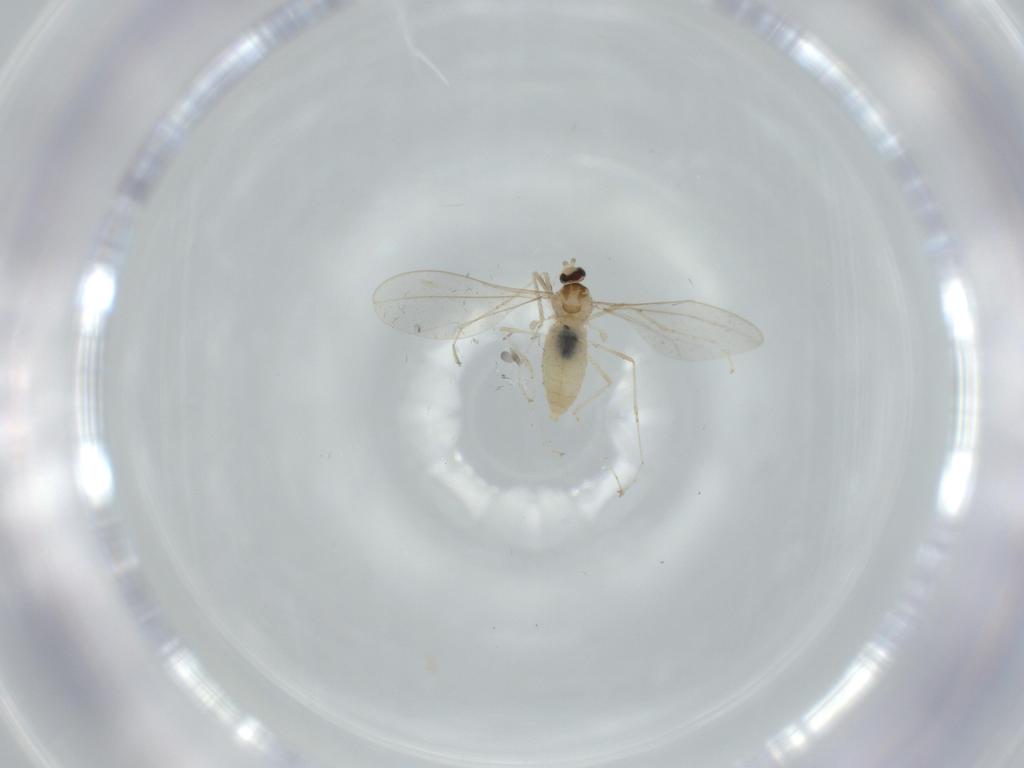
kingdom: Animalia
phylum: Arthropoda
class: Insecta
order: Diptera
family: Cecidomyiidae
